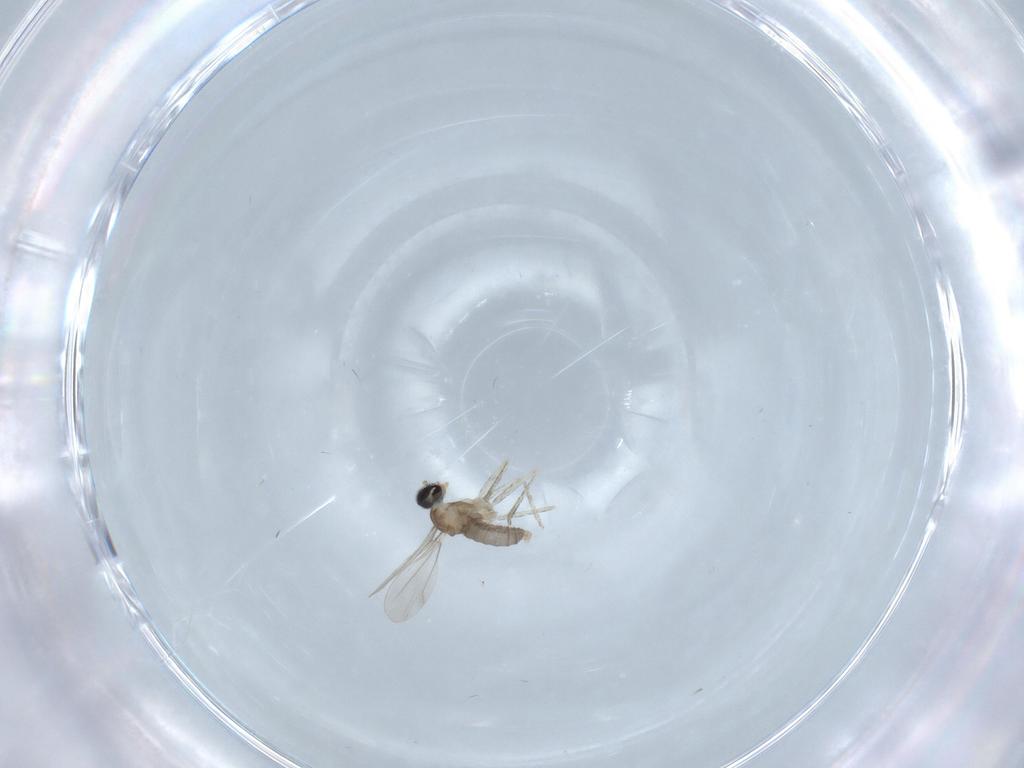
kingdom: Animalia
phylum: Arthropoda
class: Insecta
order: Diptera
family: Cecidomyiidae
